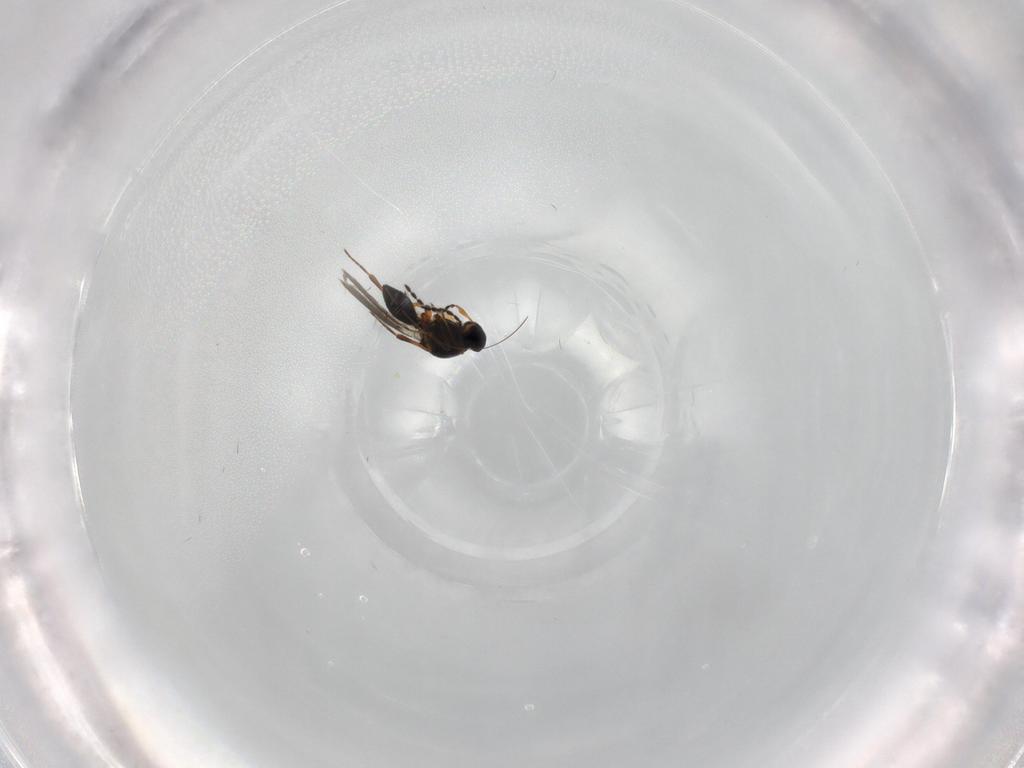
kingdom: Animalia
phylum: Arthropoda
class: Insecta
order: Hymenoptera
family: Platygastridae
